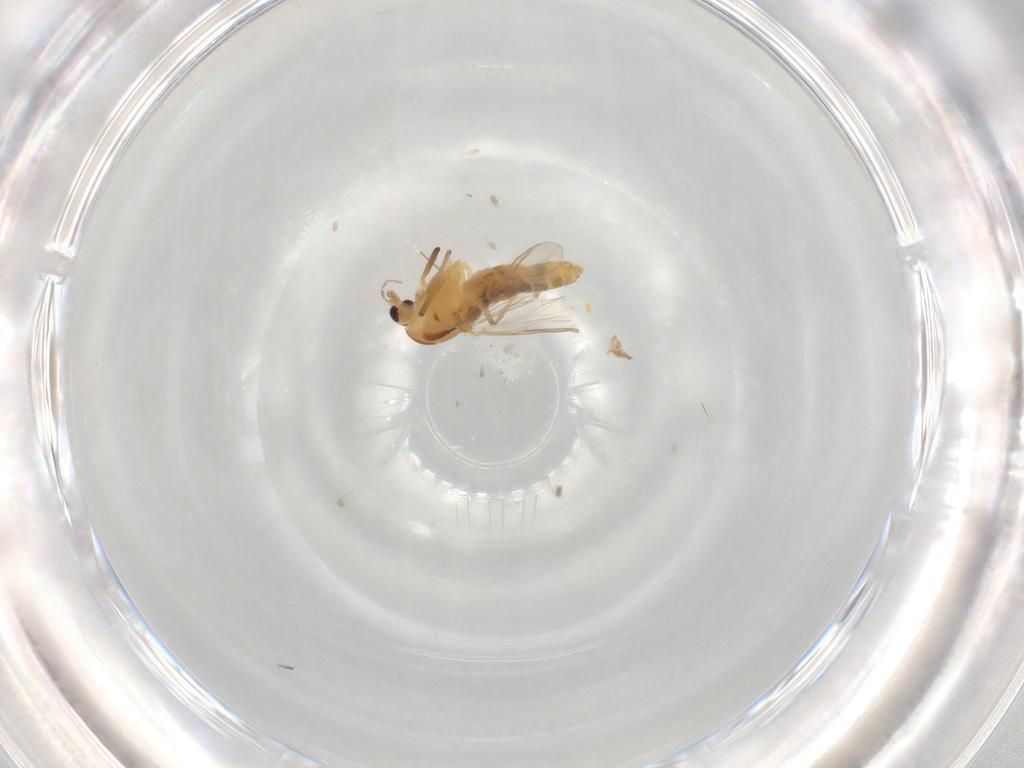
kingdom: Animalia
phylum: Arthropoda
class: Insecta
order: Diptera
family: Chironomidae
